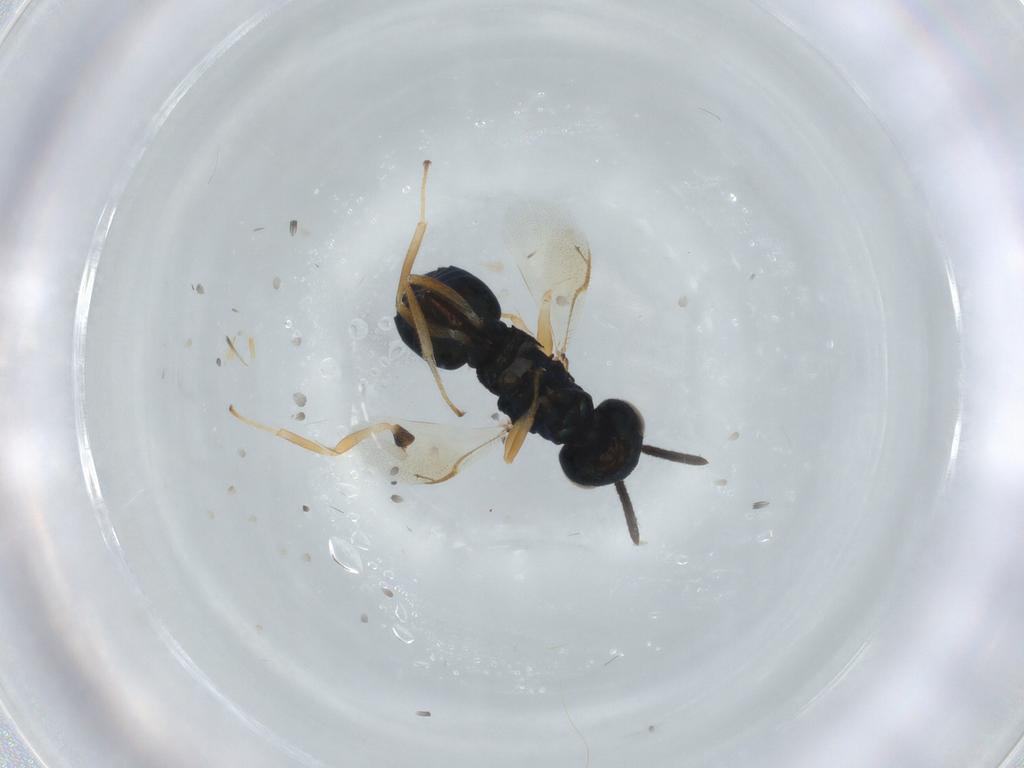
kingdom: Animalia
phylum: Arthropoda
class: Insecta
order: Hymenoptera
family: Pteromalidae
